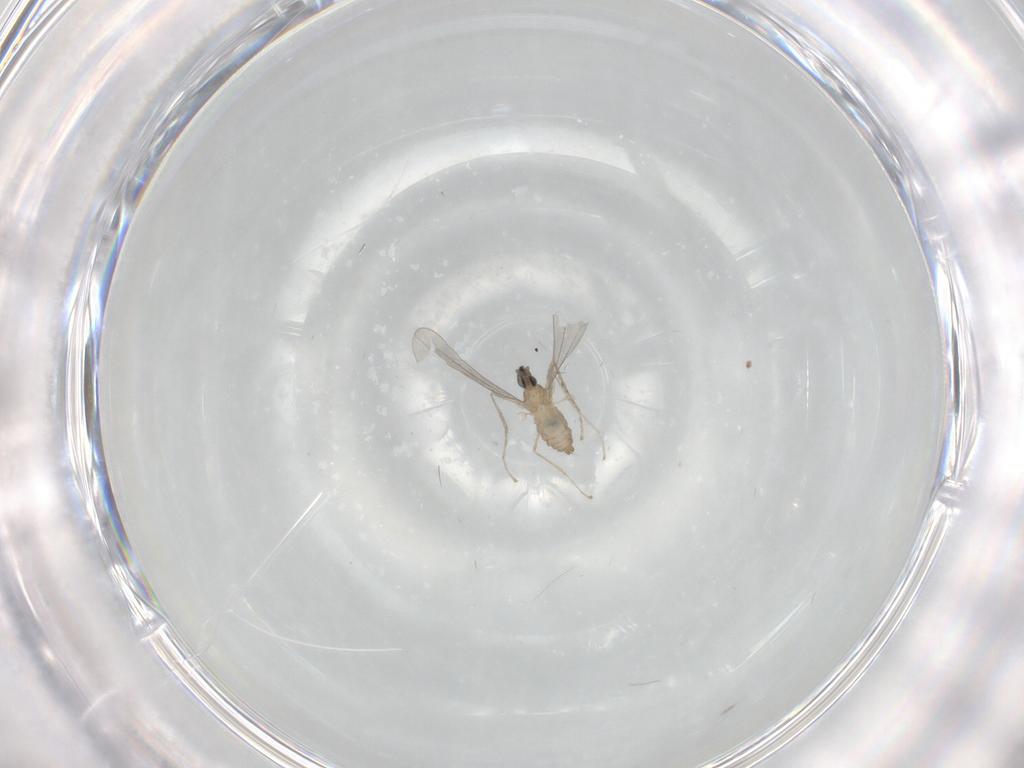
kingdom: Animalia
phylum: Arthropoda
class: Insecta
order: Diptera
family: Cecidomyiidae
